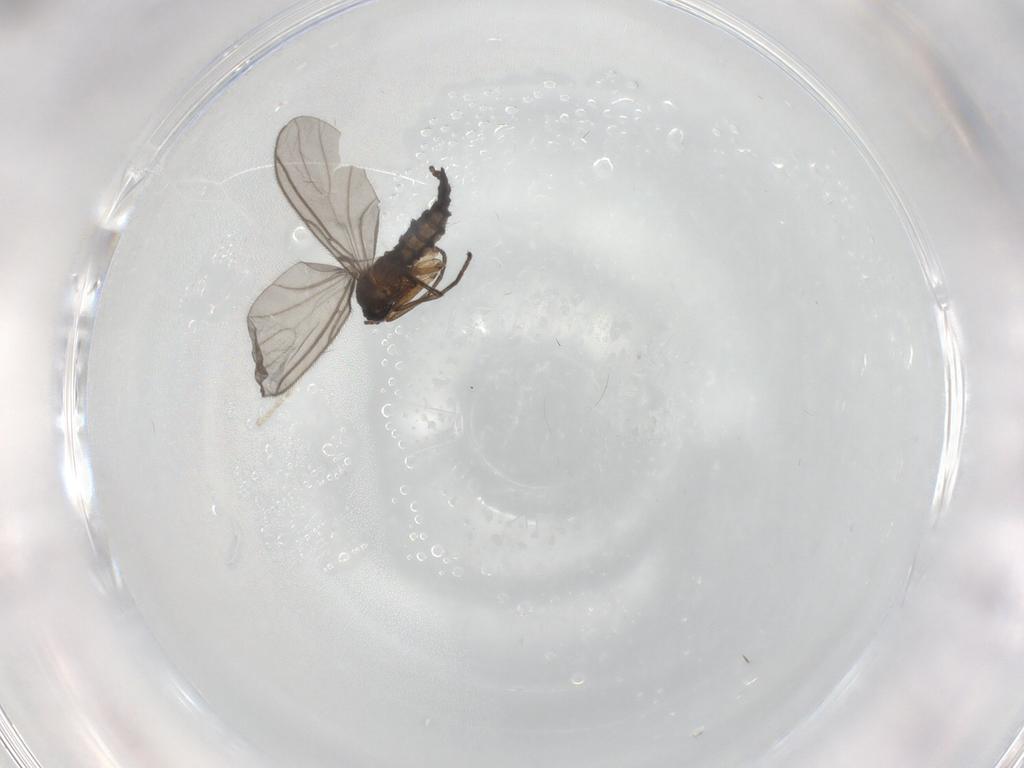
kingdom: Animalia
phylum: Arthropoda
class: Insecta
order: Diptera
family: Sciaridae
